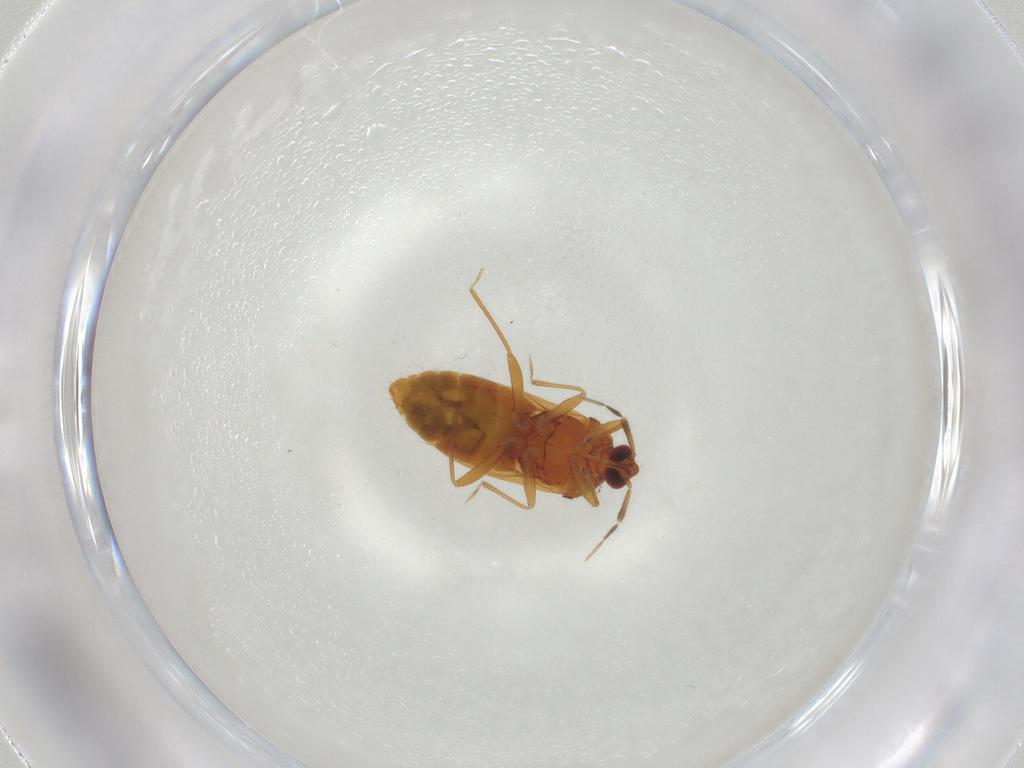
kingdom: Animalia
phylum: Arthropoda
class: Insecta
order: Hemiptera
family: Anthocoridae
